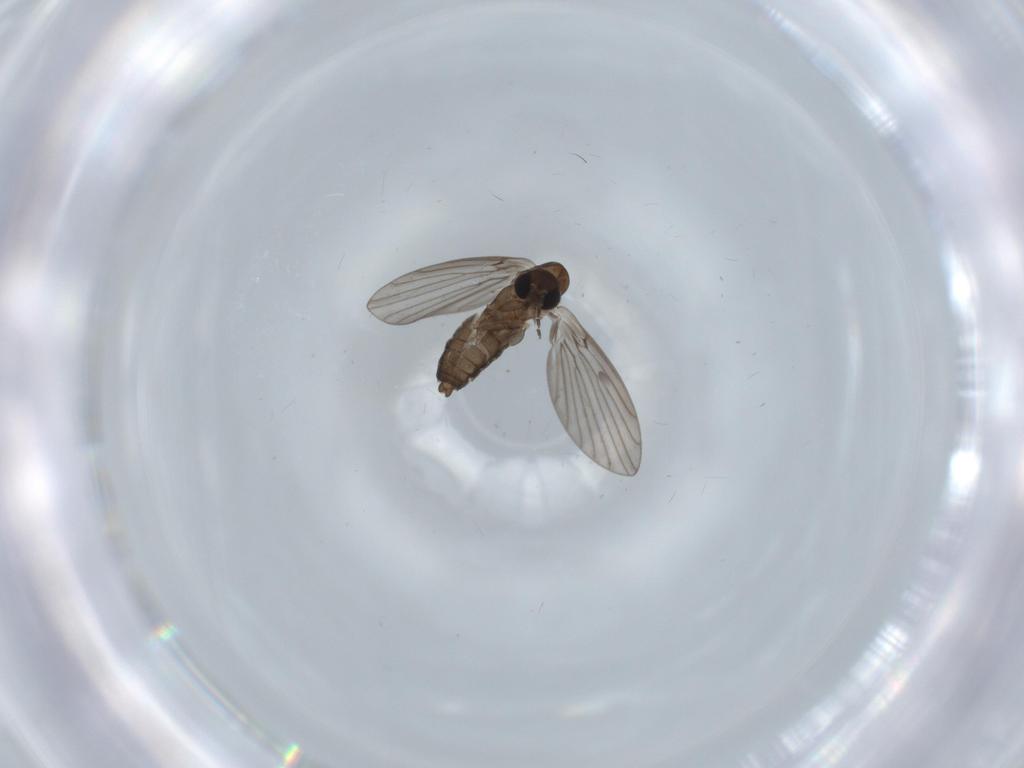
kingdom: Animalia
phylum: Arthropoda
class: Insecta
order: Diptera
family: Psychodidae
